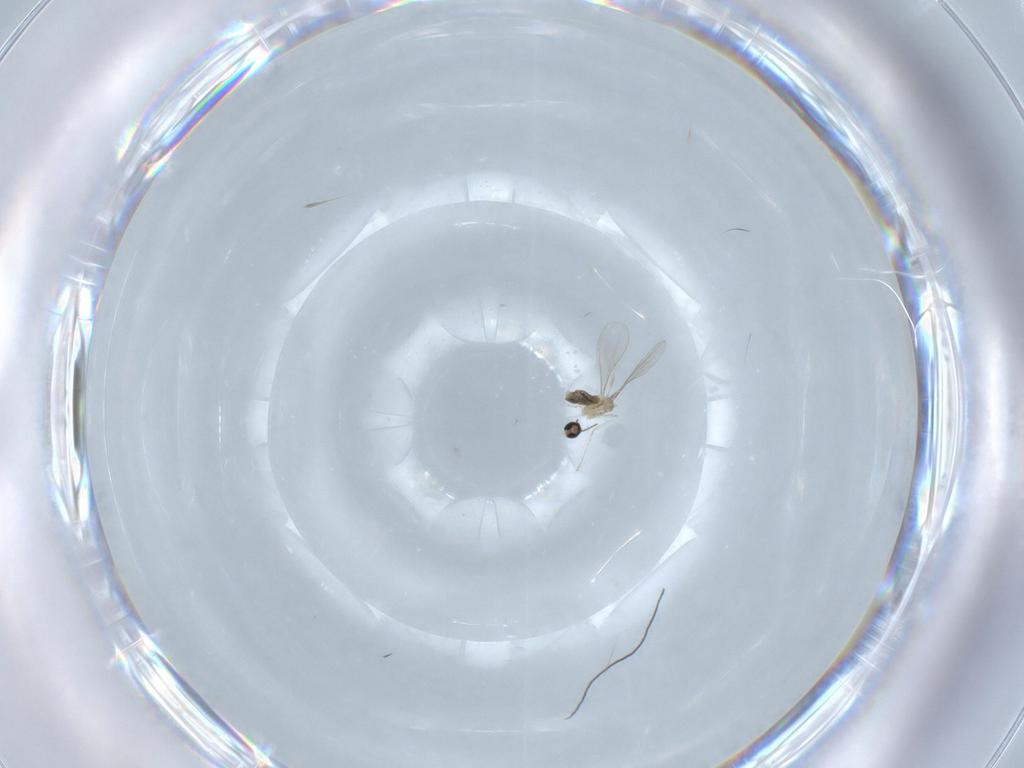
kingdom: Animalia
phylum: Arthropoda
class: Insecta
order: Diptera
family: Cecidomyiidae
